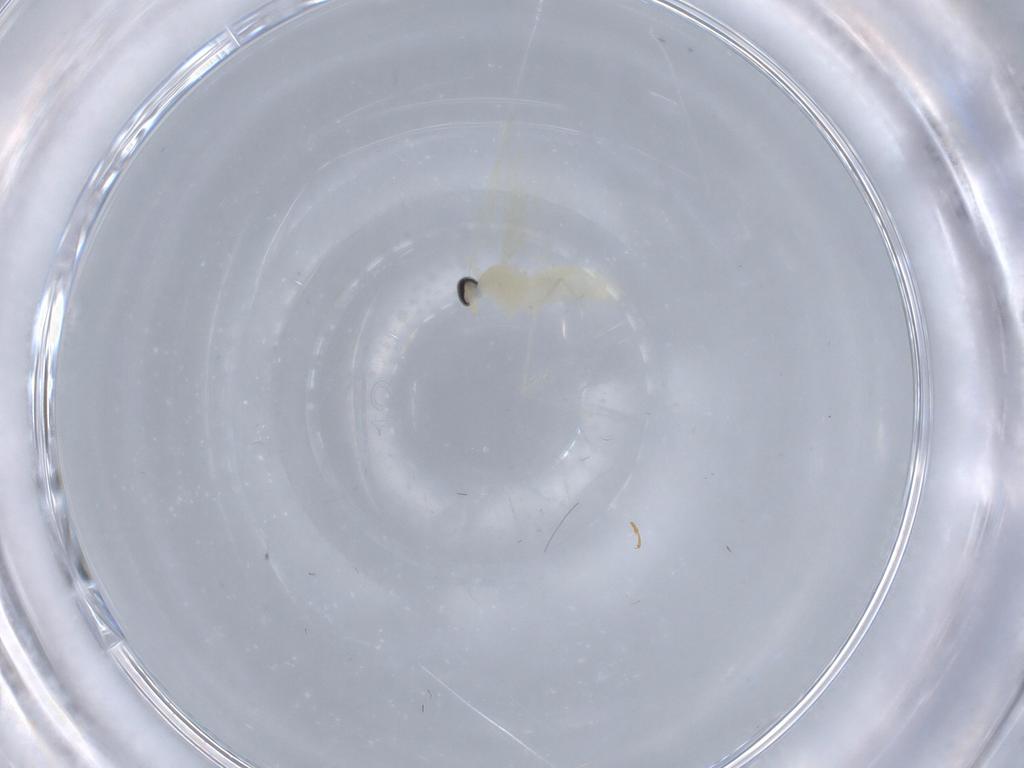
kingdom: Animalia
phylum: Arthropoda
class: Insecta
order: Diptera
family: Cecidomyiidae
